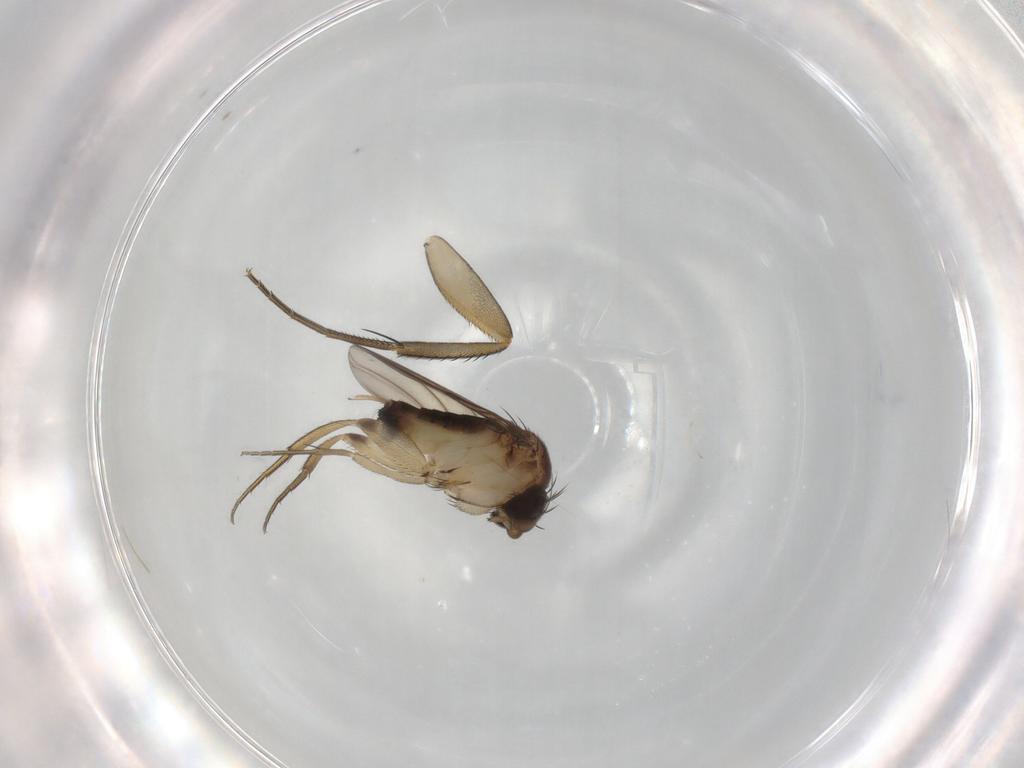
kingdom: Animalia
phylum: Arthropoda
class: Insecta
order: Diptera
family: Phoridae
